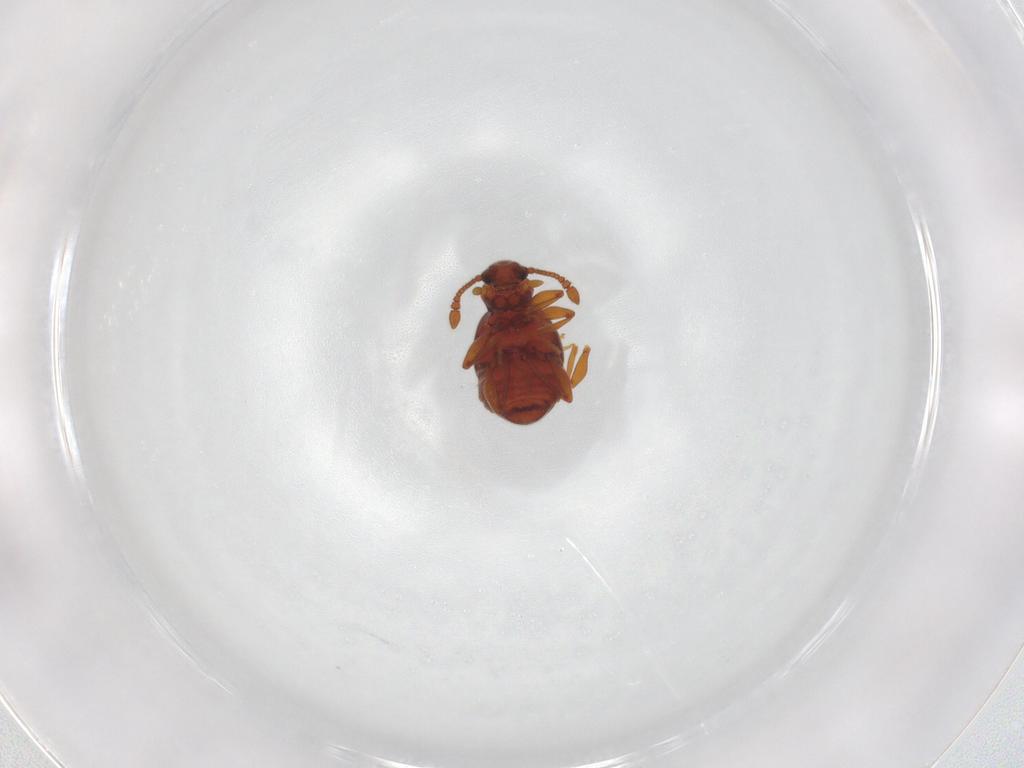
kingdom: Animalia
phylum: Arthropoda
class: Insecta
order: Coleoptera
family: Staphylinidae
